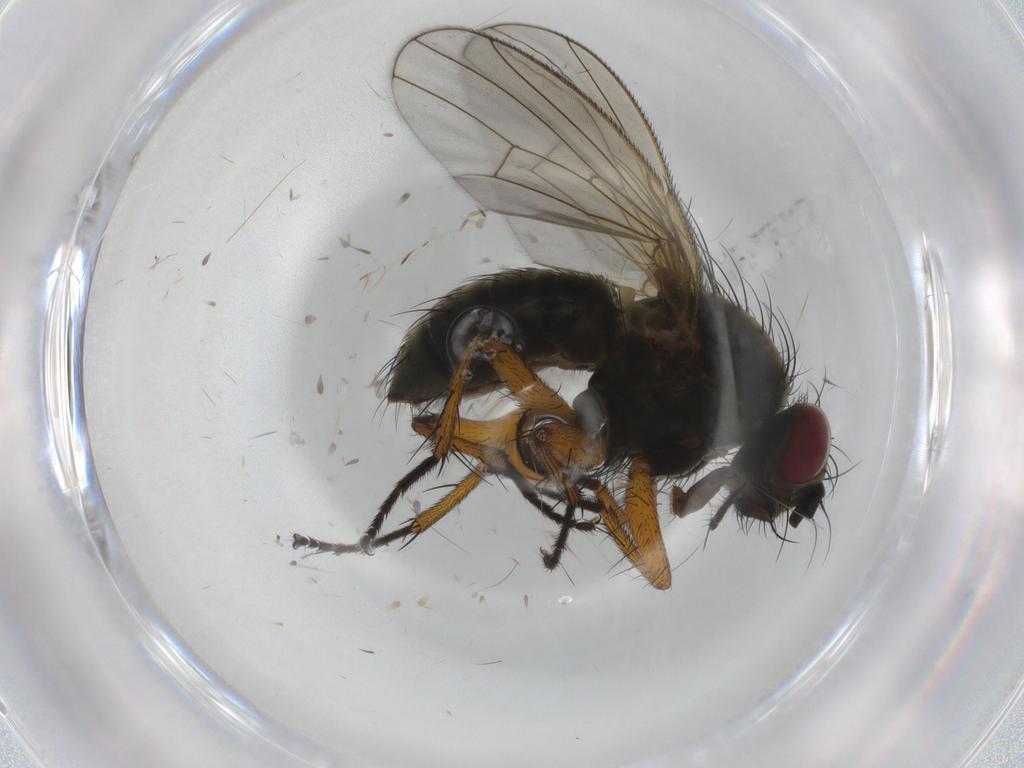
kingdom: Animalia
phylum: Arthropoda
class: Insecta
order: Diptera
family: Muscidae
